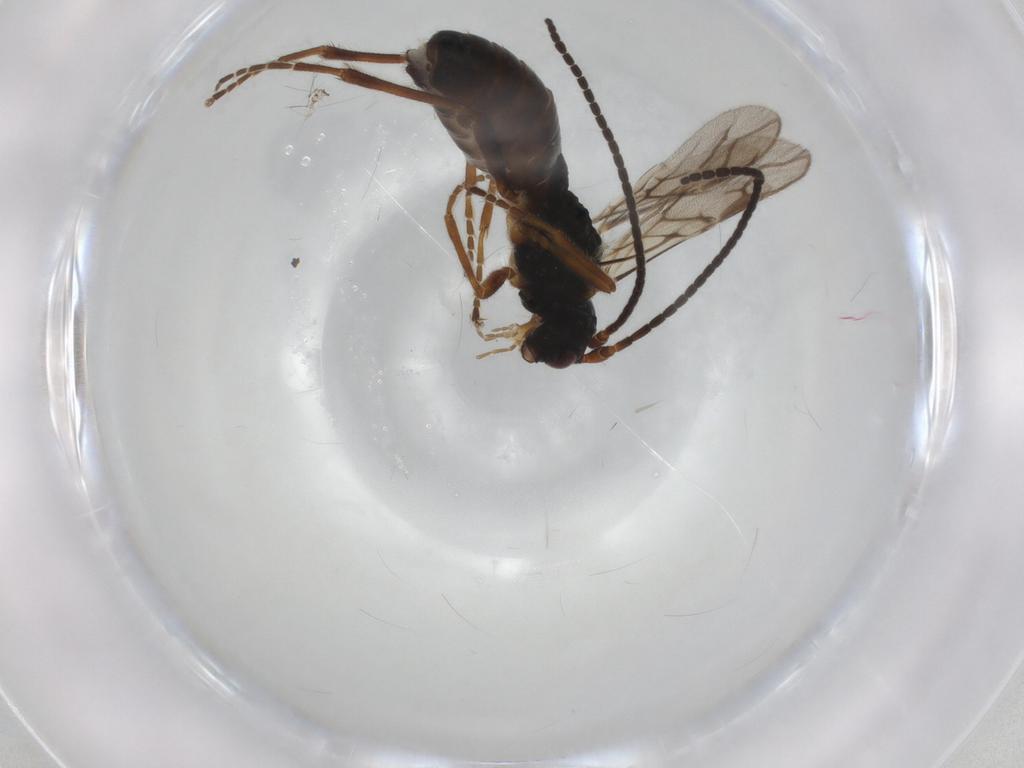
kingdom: Animalia
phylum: Arthropoda
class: Insecta
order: Hymenoptera
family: Braconidae
